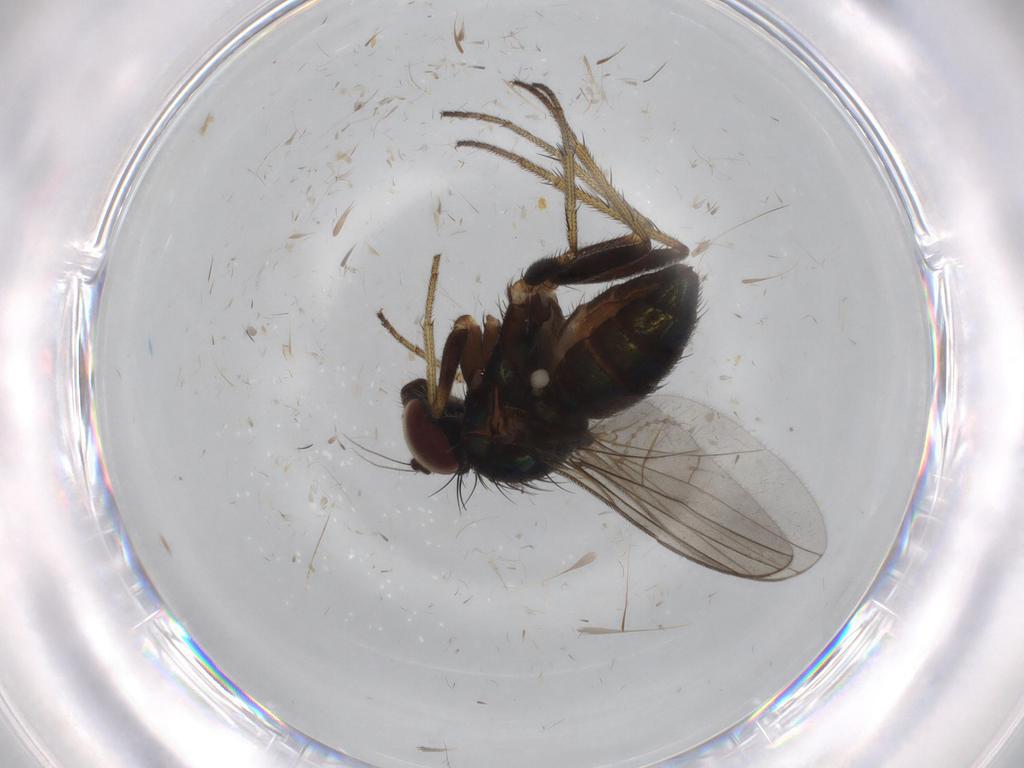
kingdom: Animalia
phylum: Arthropoda
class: Insecta
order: Diptera
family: Dolichopodidae
